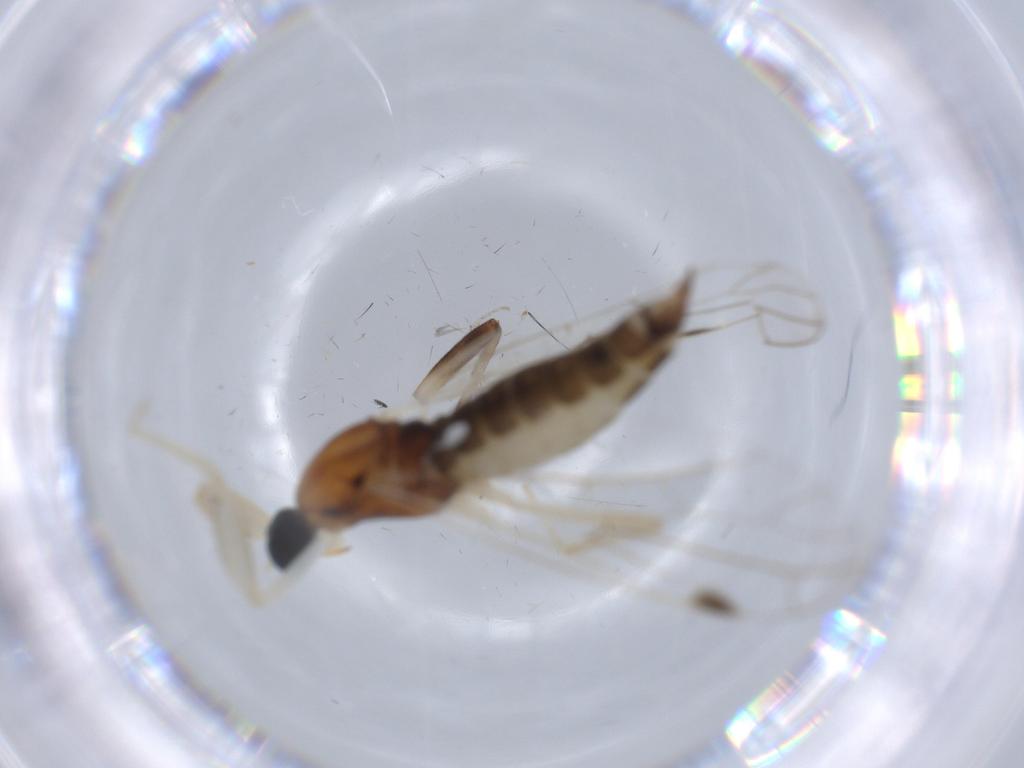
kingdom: Animalia
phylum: Arthropoda
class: Insecta
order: Diptera
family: Empididae
